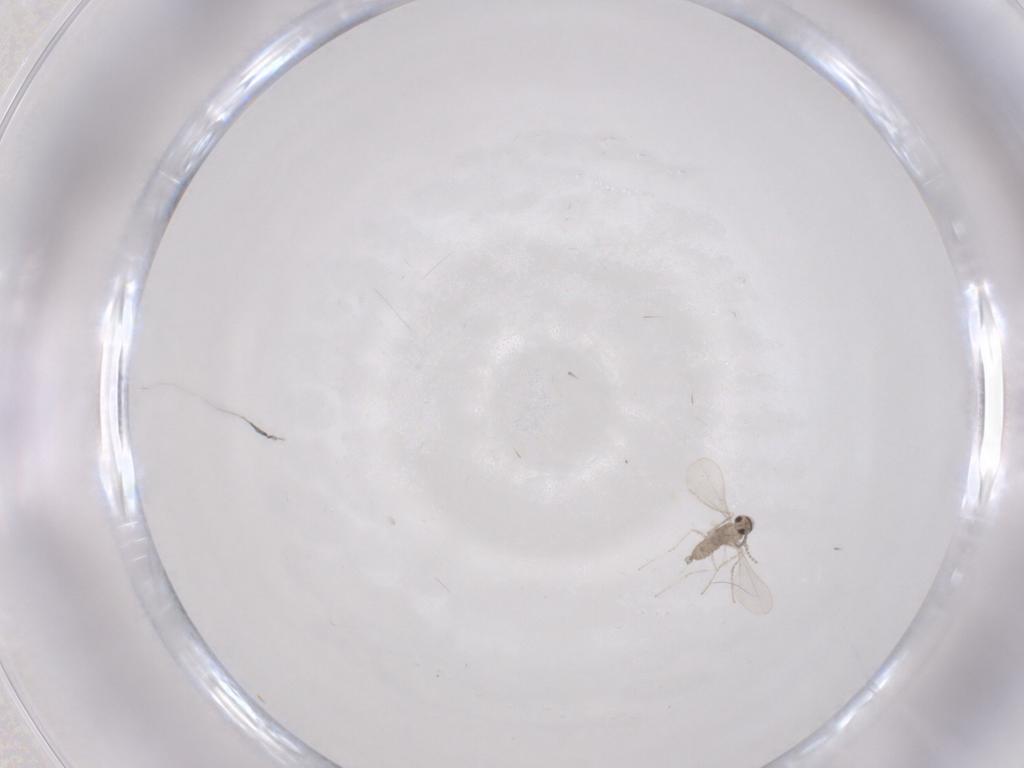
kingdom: Animalia
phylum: Arthropoda
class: Insecta
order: Diptera
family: Cecidomyiidae
